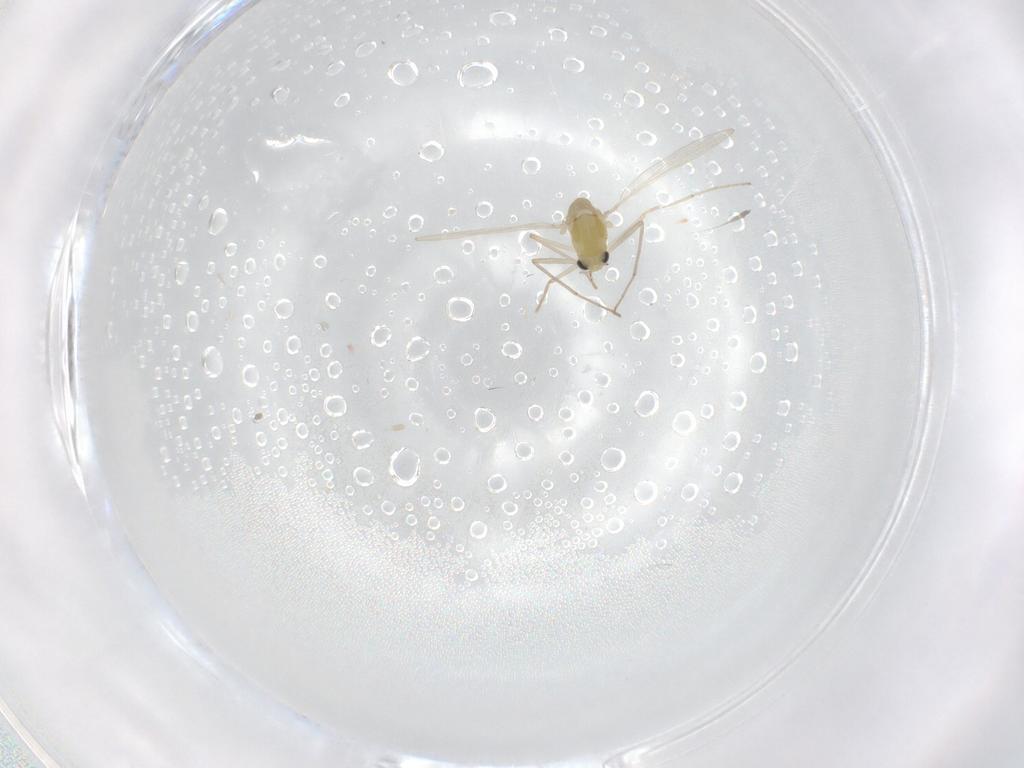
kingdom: Animalia
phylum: Arthropoda
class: Insecta
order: Diptera
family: Chironomidae
